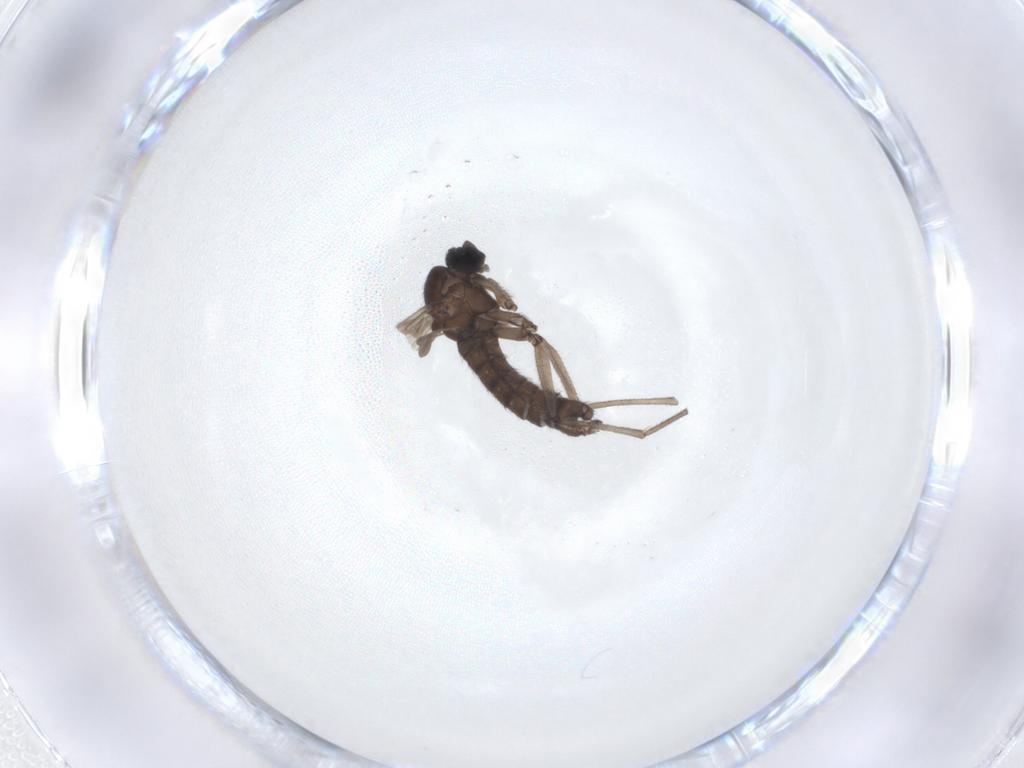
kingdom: Animalia
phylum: Arthropoda
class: Insecta
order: Diptera
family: Sciaridae
